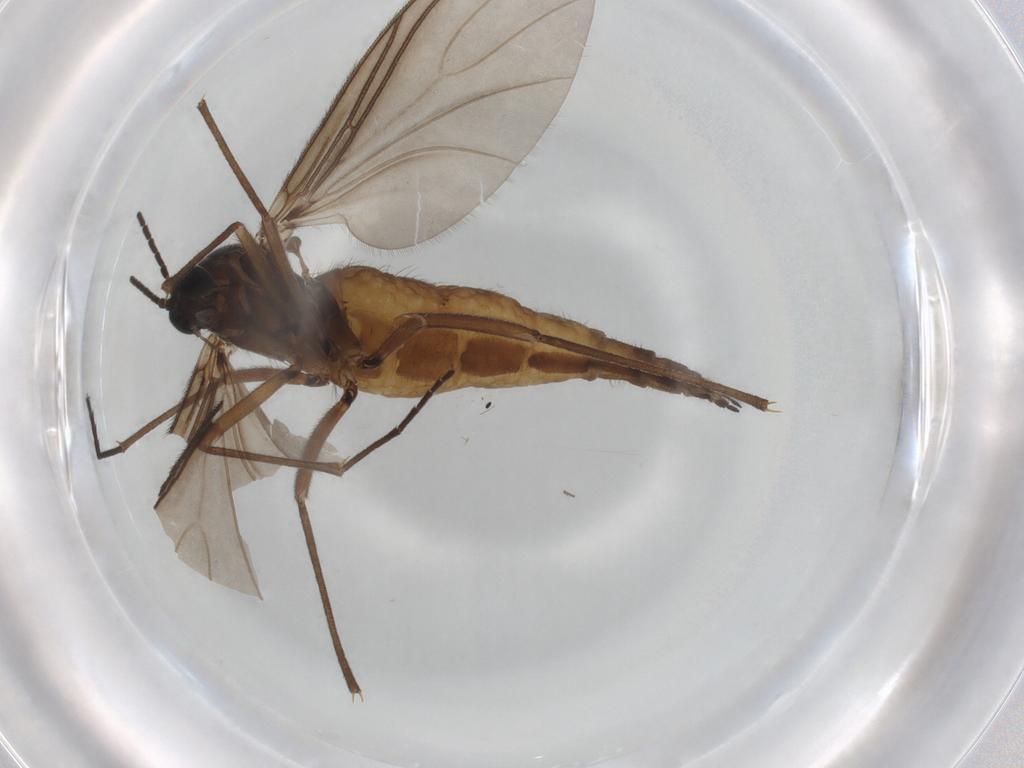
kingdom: Animalia
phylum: Arthropoda
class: Insecta
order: Diptera
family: Sciaridae
